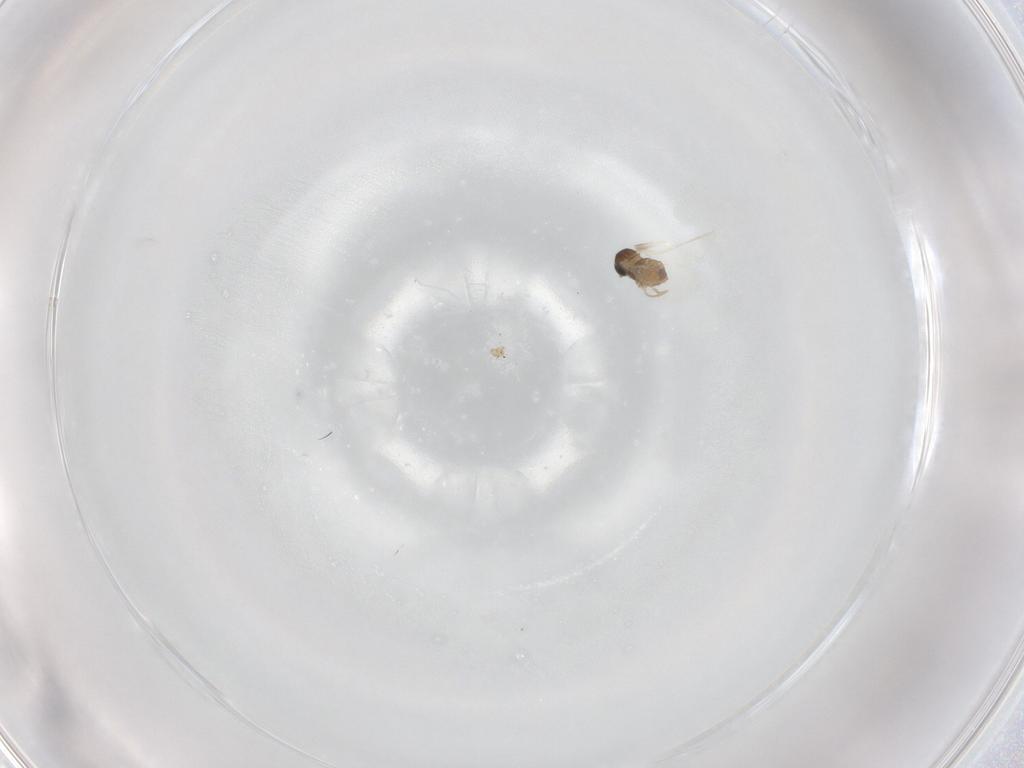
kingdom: Animalia
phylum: Arthropoda
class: Insecta
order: Diptera
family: Cecidomyiidae
